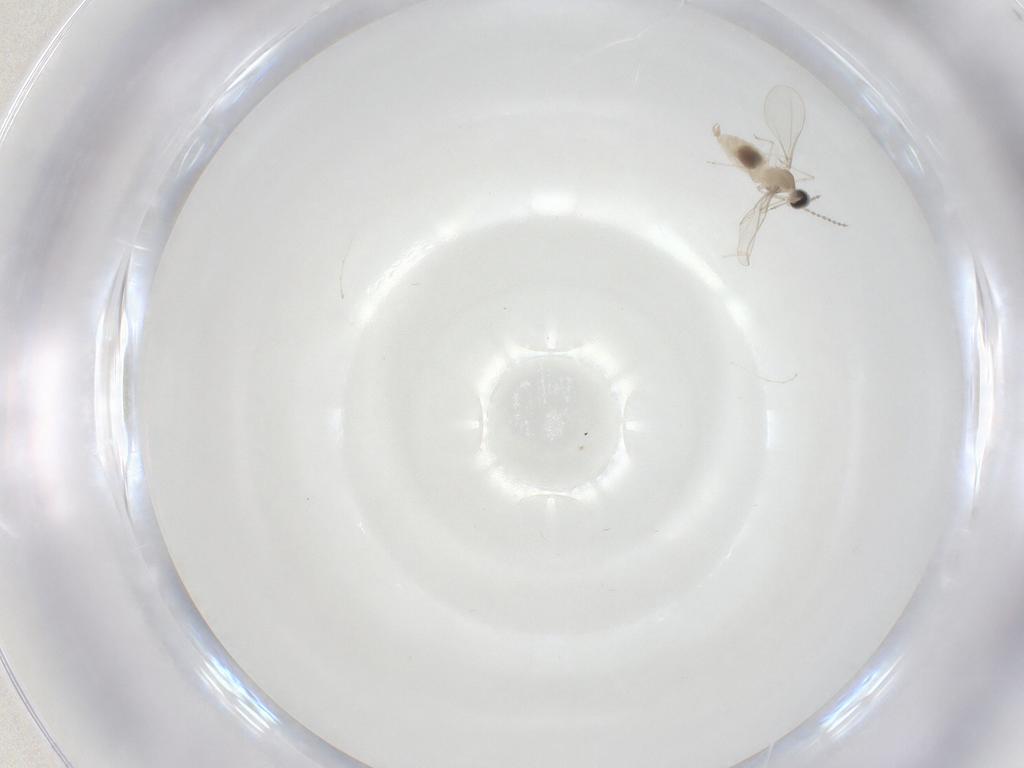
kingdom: Animalia
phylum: Arthropoda
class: Insecta
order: Diptera
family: Cecidomyiidae
